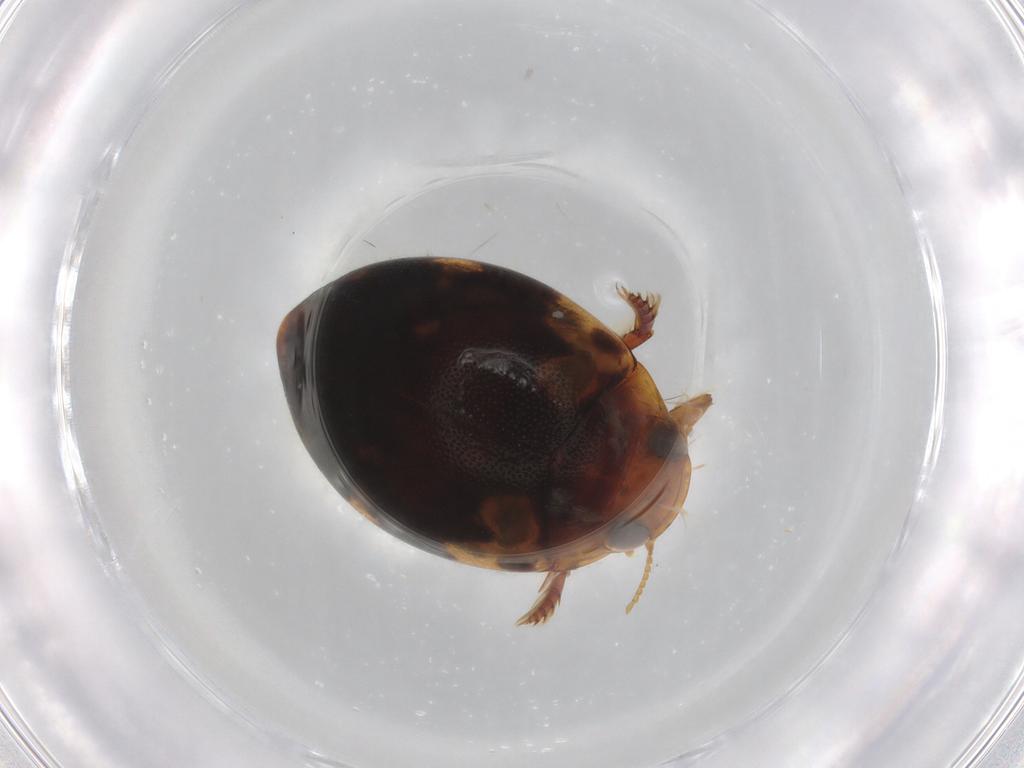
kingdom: Animalia
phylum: Arthropoda
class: Insecta
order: Coleoptera
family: Dytiscidae
